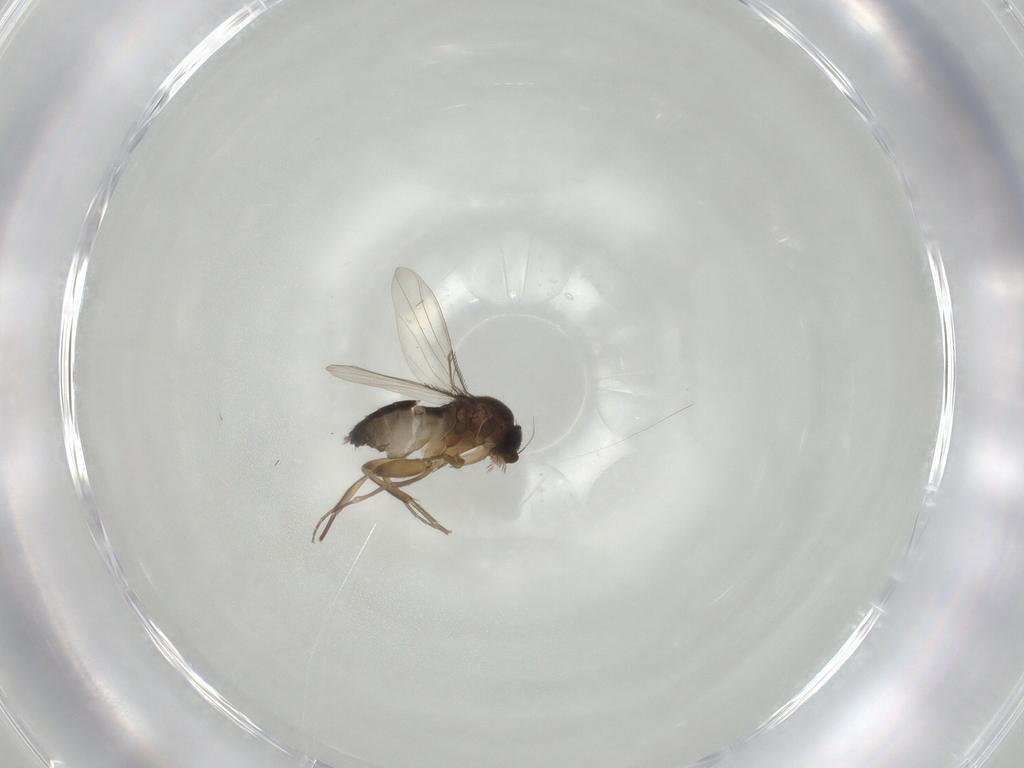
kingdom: Animalia
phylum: Arthropoda
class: Insecta
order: Diptera
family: Phoridae
